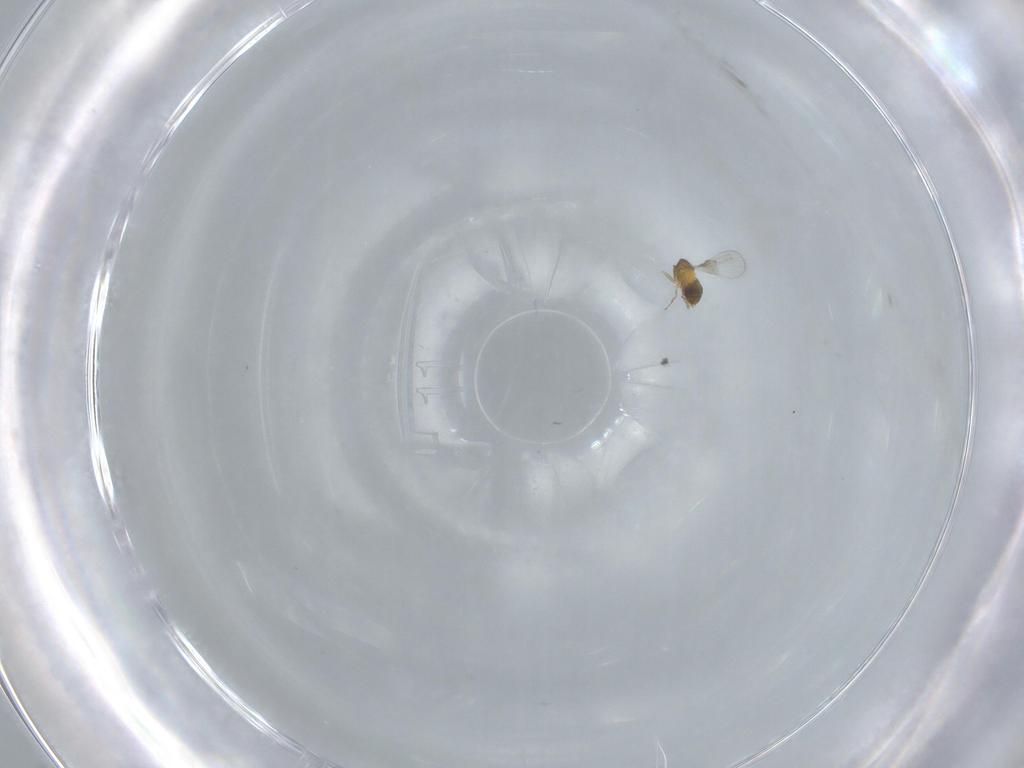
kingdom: Animalia
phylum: Arthropoda
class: Insecta
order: Hymenoptera
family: Trichogrammatidae
